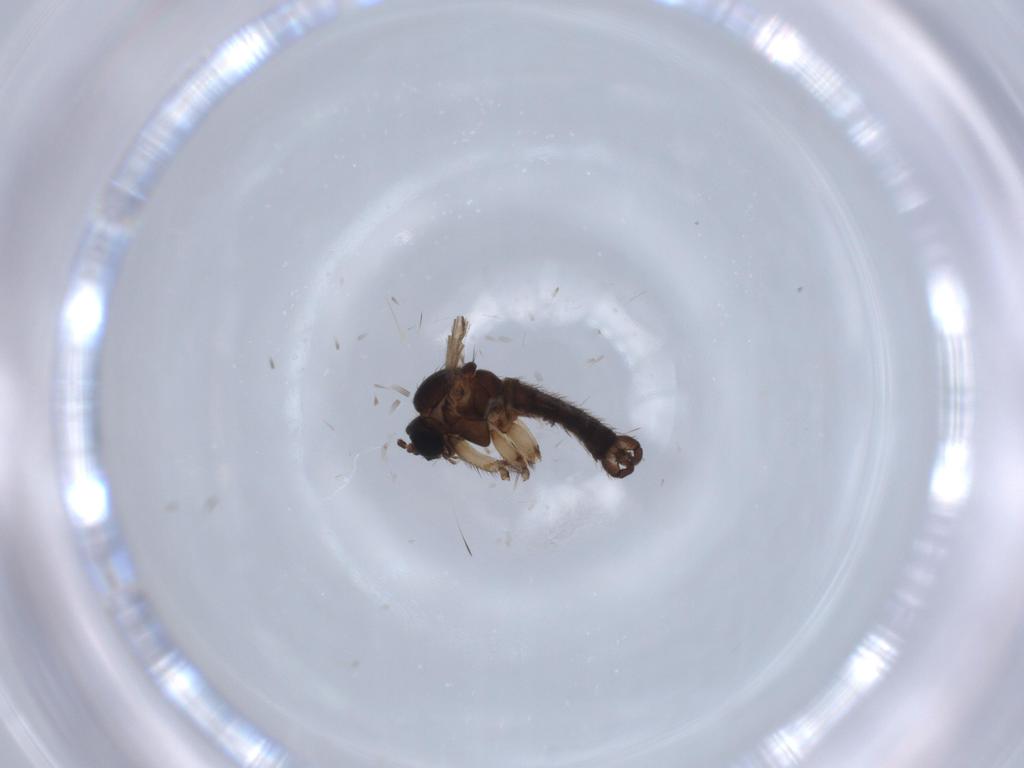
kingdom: Animalia
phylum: Arthropoda
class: Insecta
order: Diptera
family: Sciaridae
